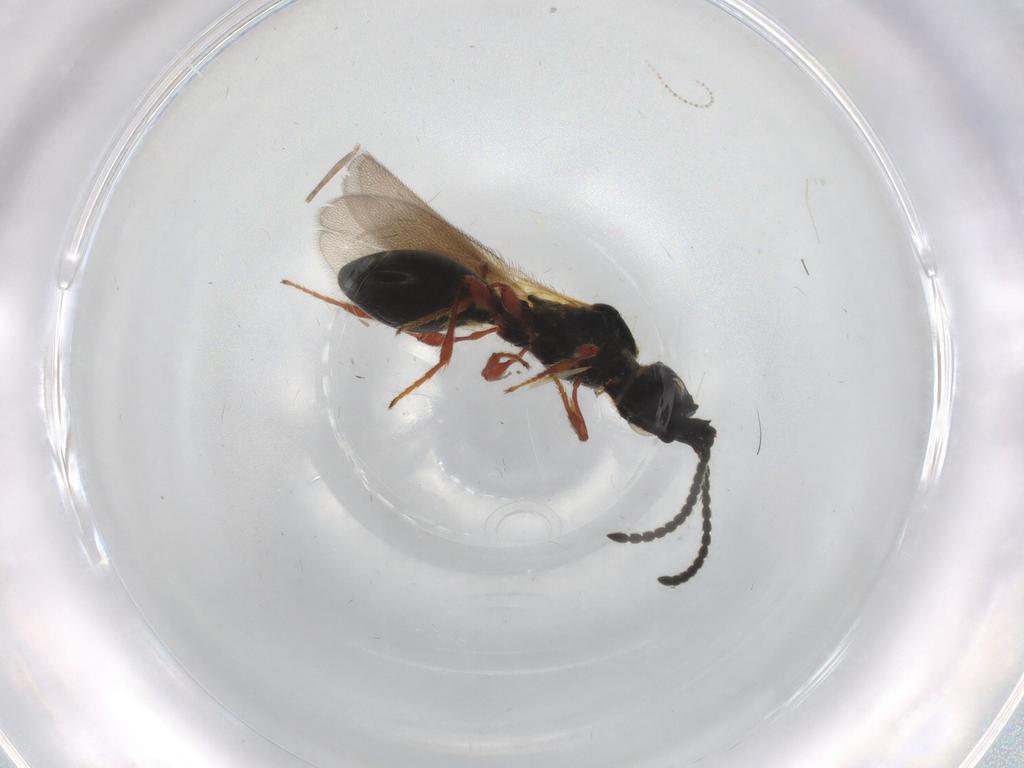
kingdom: Animalia
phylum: Arthropoda
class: Insecta
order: Hymenoptera
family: Diapriidae
